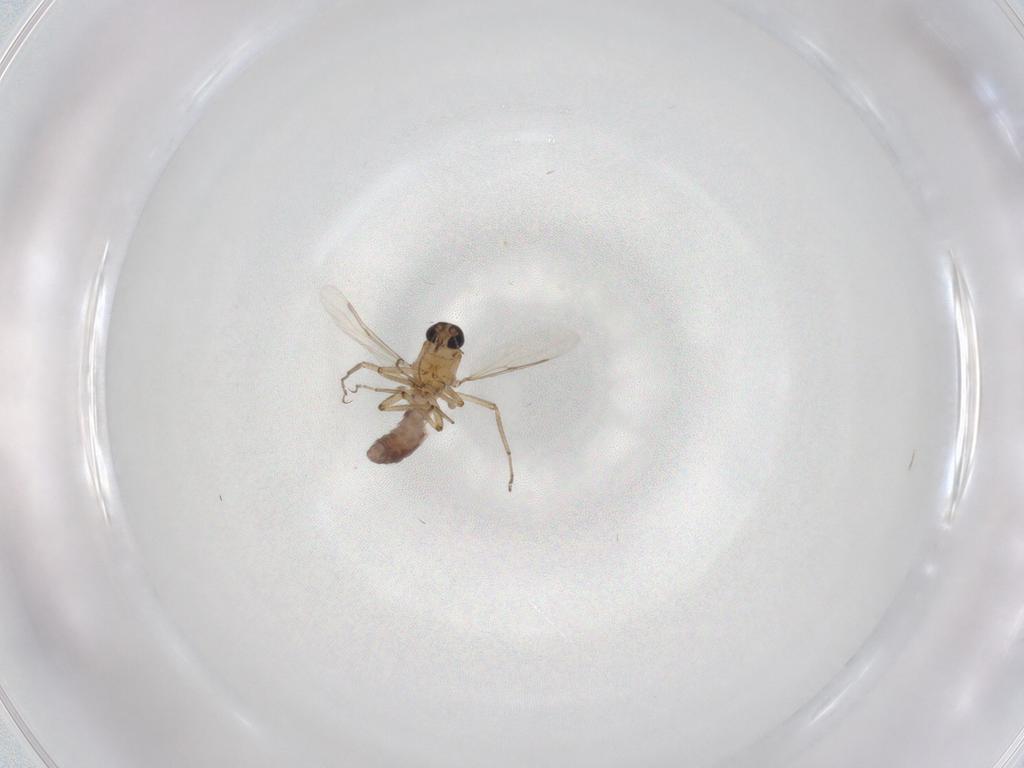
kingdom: Animalia
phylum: Arthropoda
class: Insecta
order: Diptera
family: Ceratopogonidae
